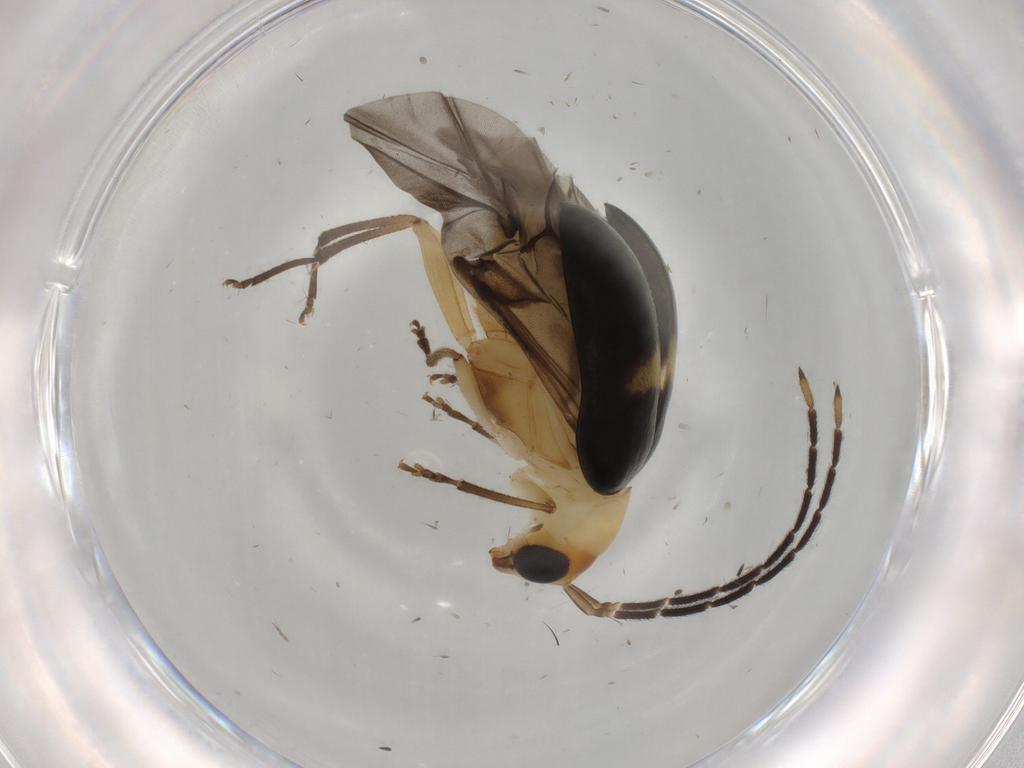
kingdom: Animalia
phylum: Arthropoda
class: Insecta
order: Coleoptera
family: Chrysomelidae
